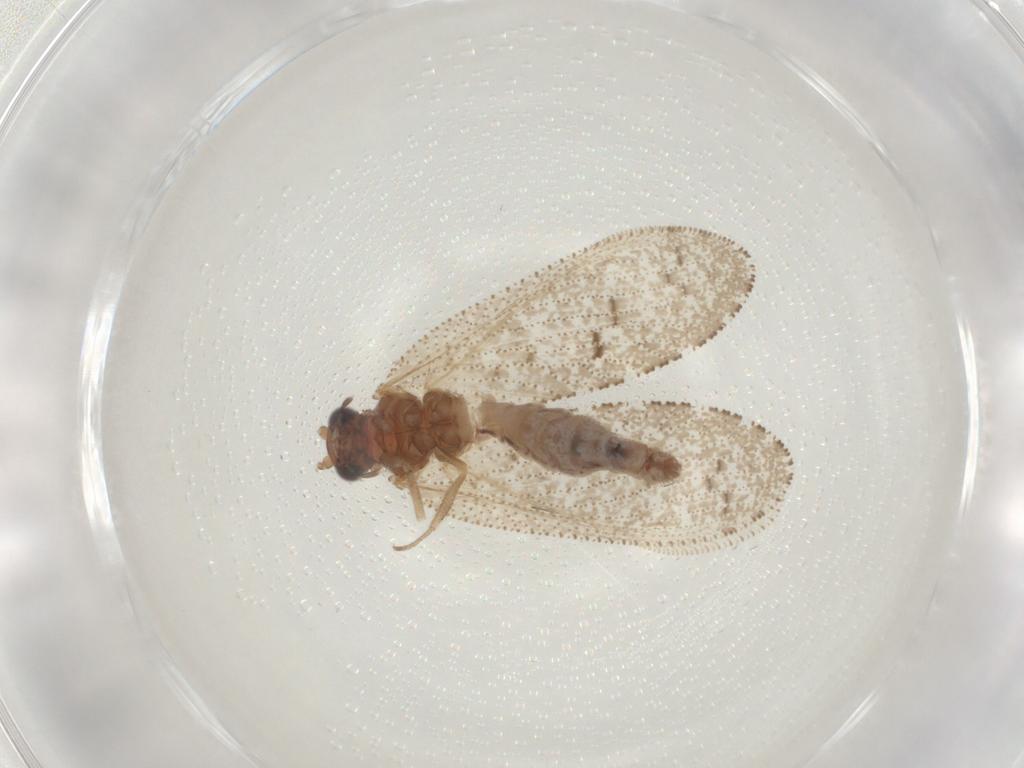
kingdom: Animalia
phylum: Arthropoda
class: Insecta
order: Neuroptera
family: Hemerobiidae
